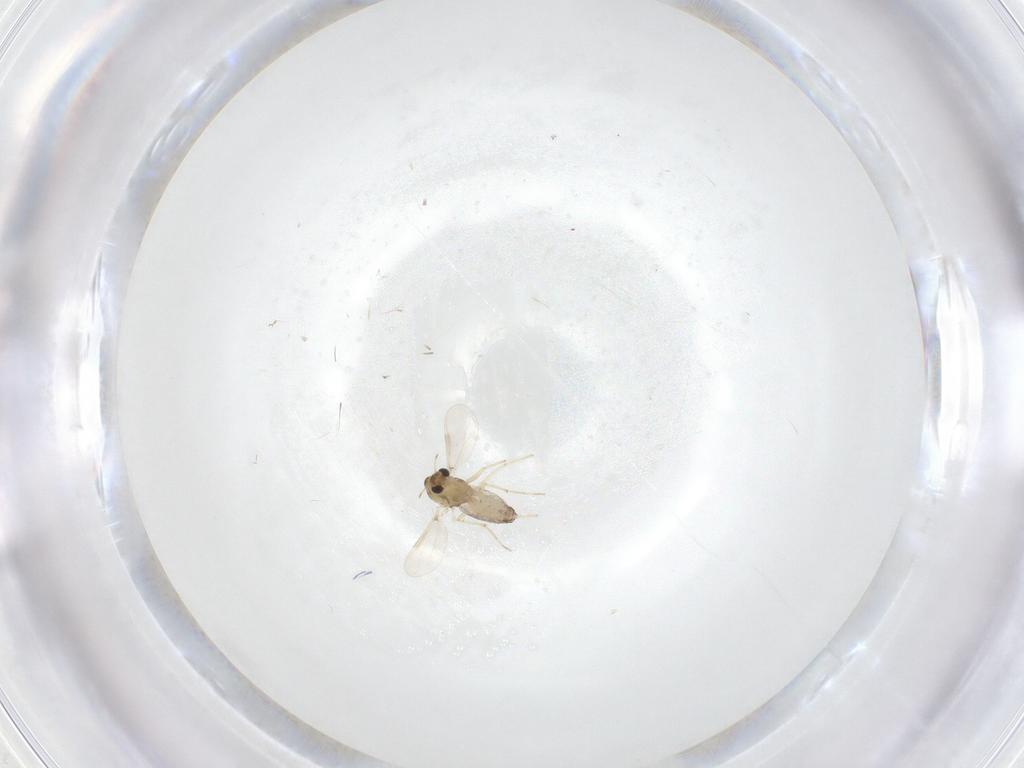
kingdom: Animalia
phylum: Arthropoda
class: Insecta
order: Diptera
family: Chironomidae
